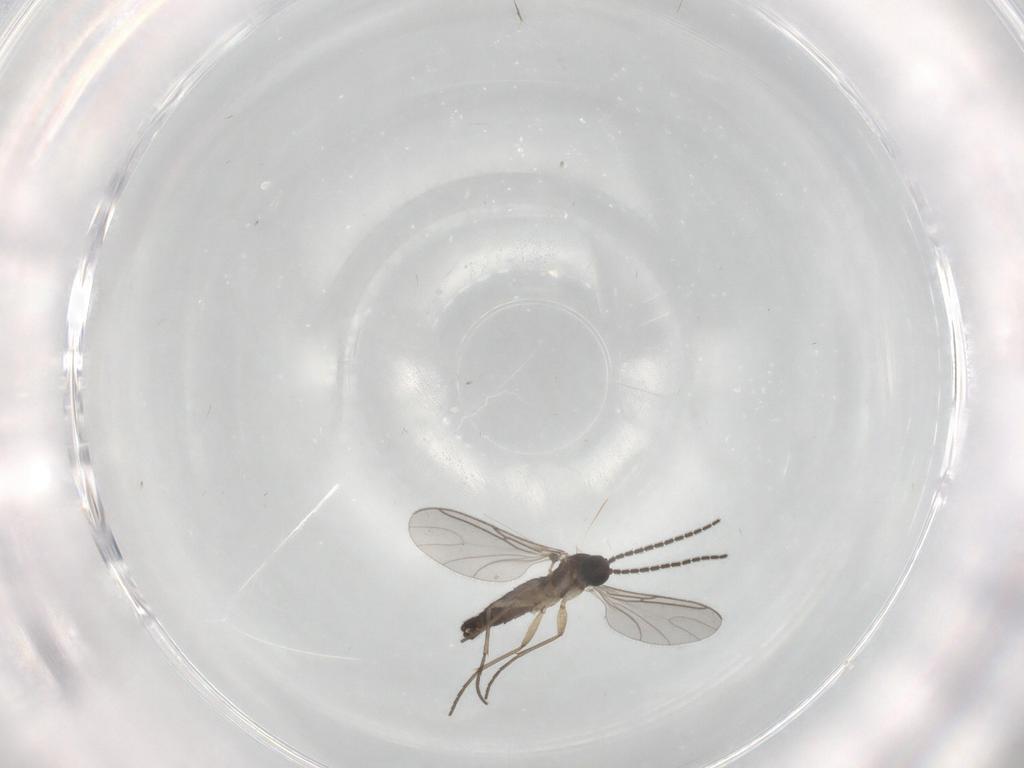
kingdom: Animalia
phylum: Arthropoda
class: Insecta
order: Diptera
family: Sciaridae
